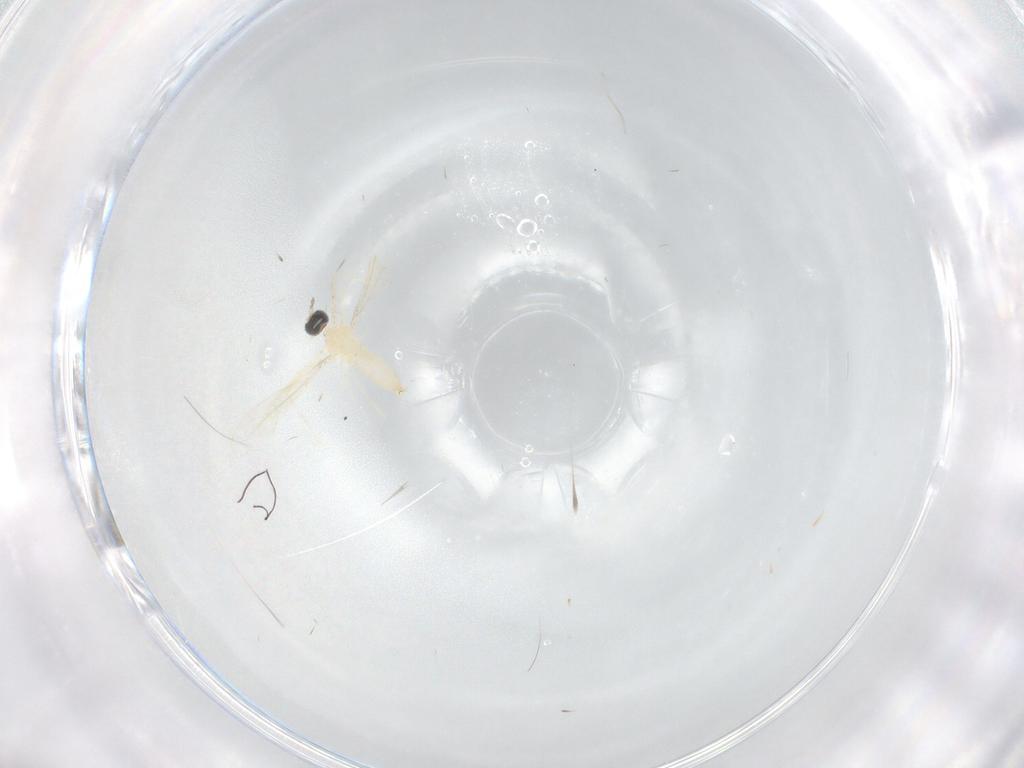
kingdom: Animalia
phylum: Arthropoda
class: Insecta
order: Diptera
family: Cecidomyiidae
